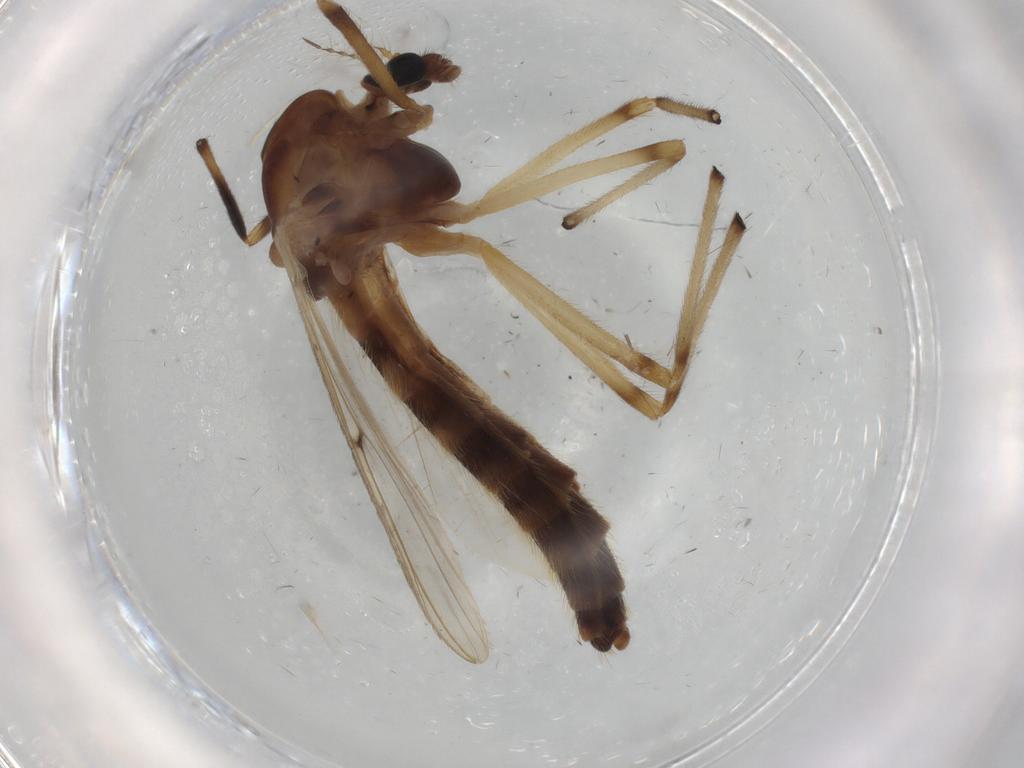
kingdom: Animalia
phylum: Arthropoda
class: Insecta
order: Diptera
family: Chironomidae
